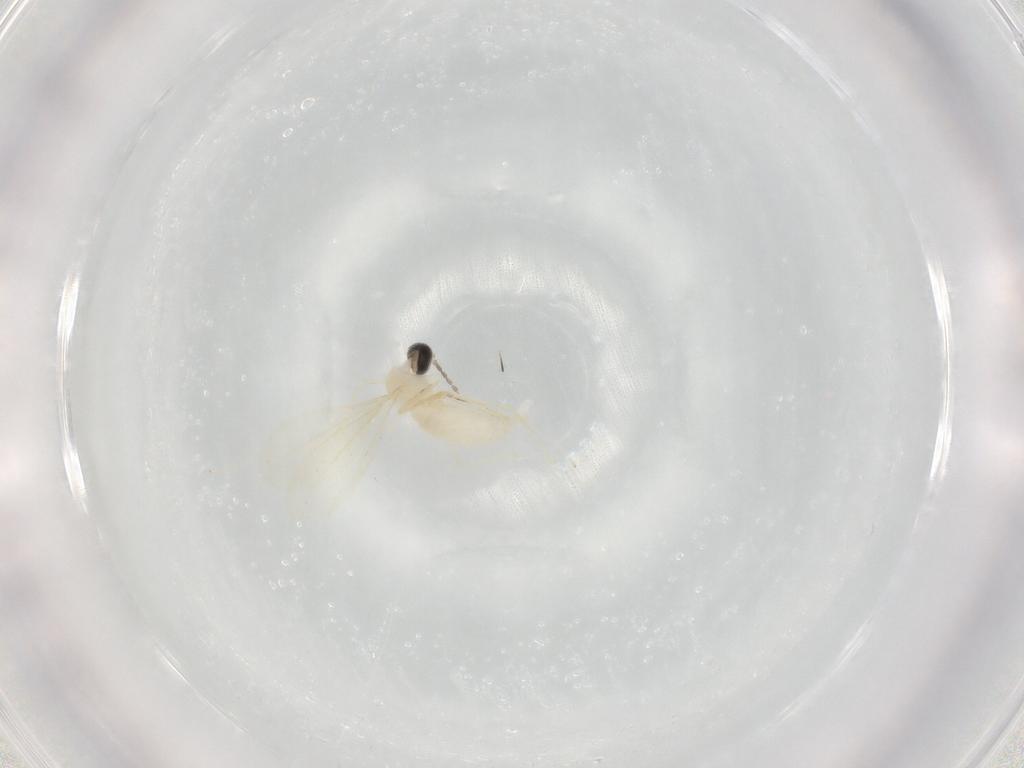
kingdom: Animalia
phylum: Arthropoda
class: Insecta
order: Diptera
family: Cecidomyiidae
